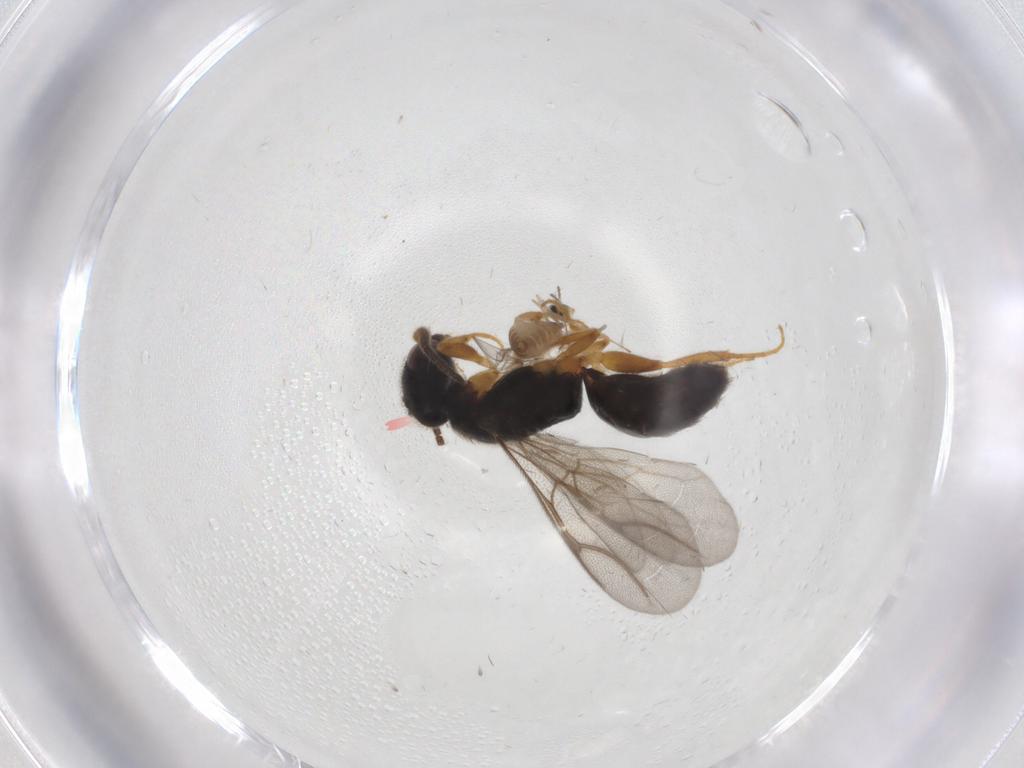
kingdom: Animalia
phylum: Arthropoda
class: Insecta
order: Hymenoptera
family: Bethylidae
